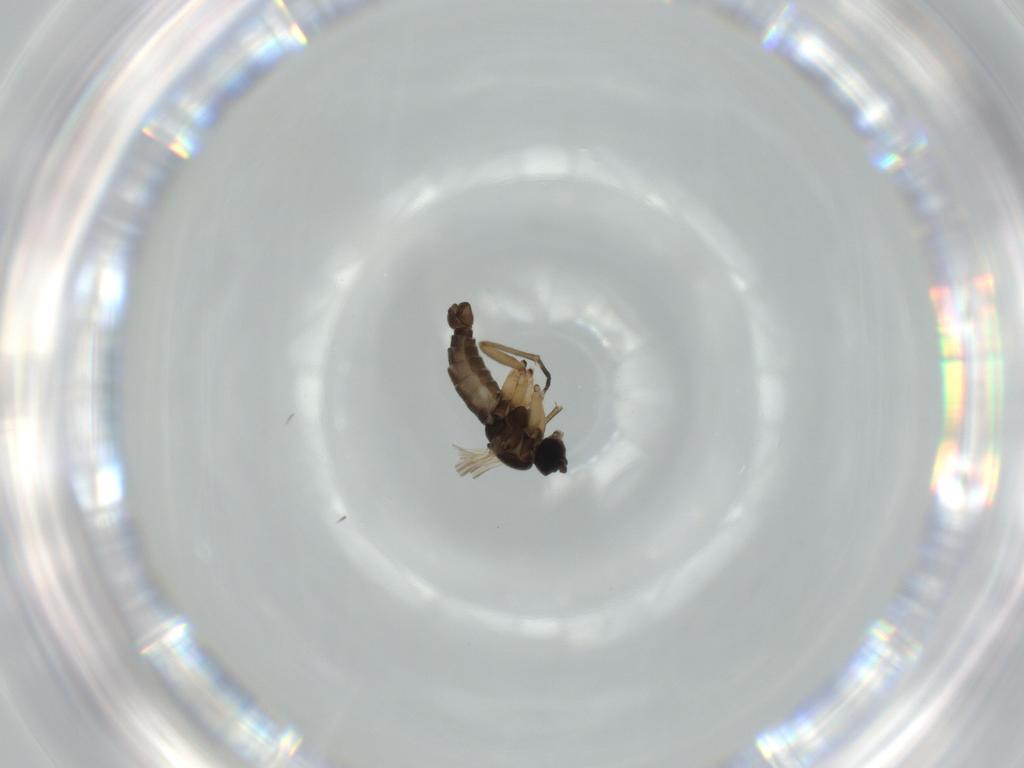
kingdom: Animalia
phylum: Arthropoda
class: Insecta
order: Diptera
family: Sciaridae
